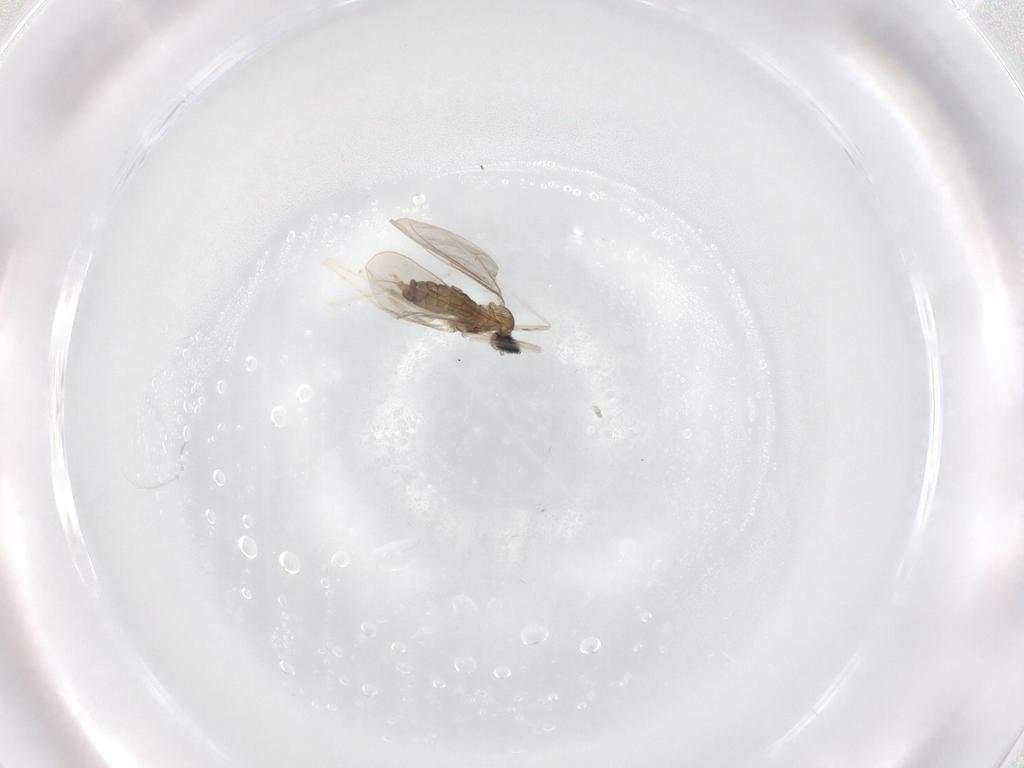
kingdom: Animalia
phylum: Arthropoda
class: Insecta
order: Diptera
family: Cecidomyiidae
